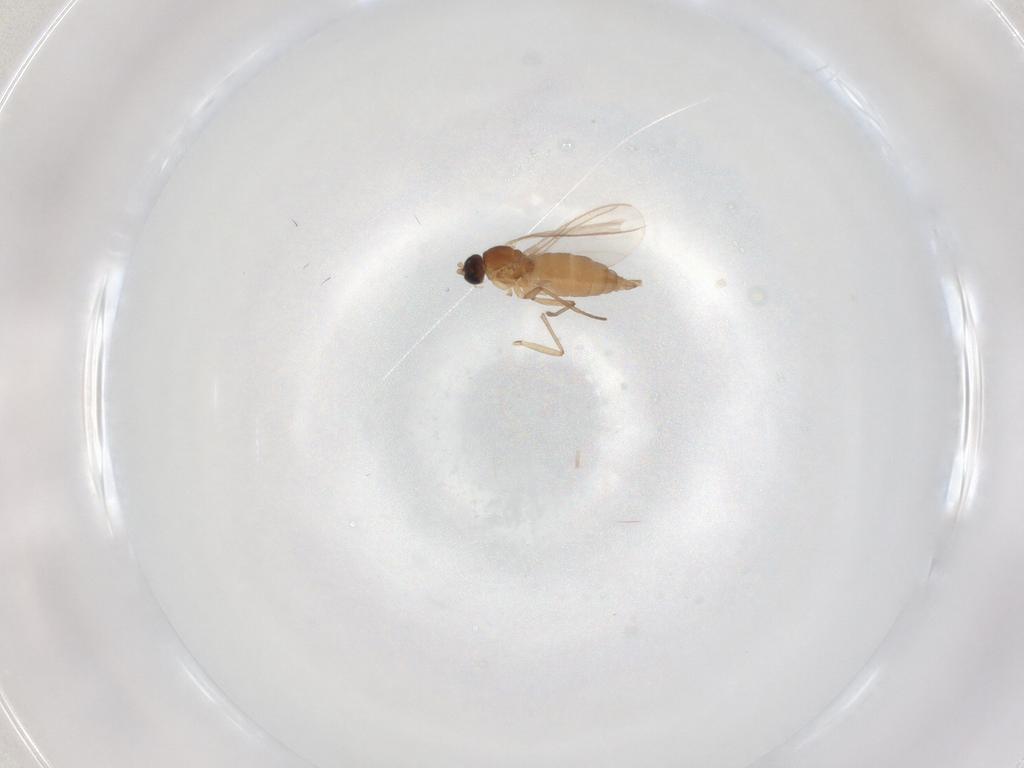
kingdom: Animalia
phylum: Arthropoda
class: Insecta
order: Diptera
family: Sciaridae
